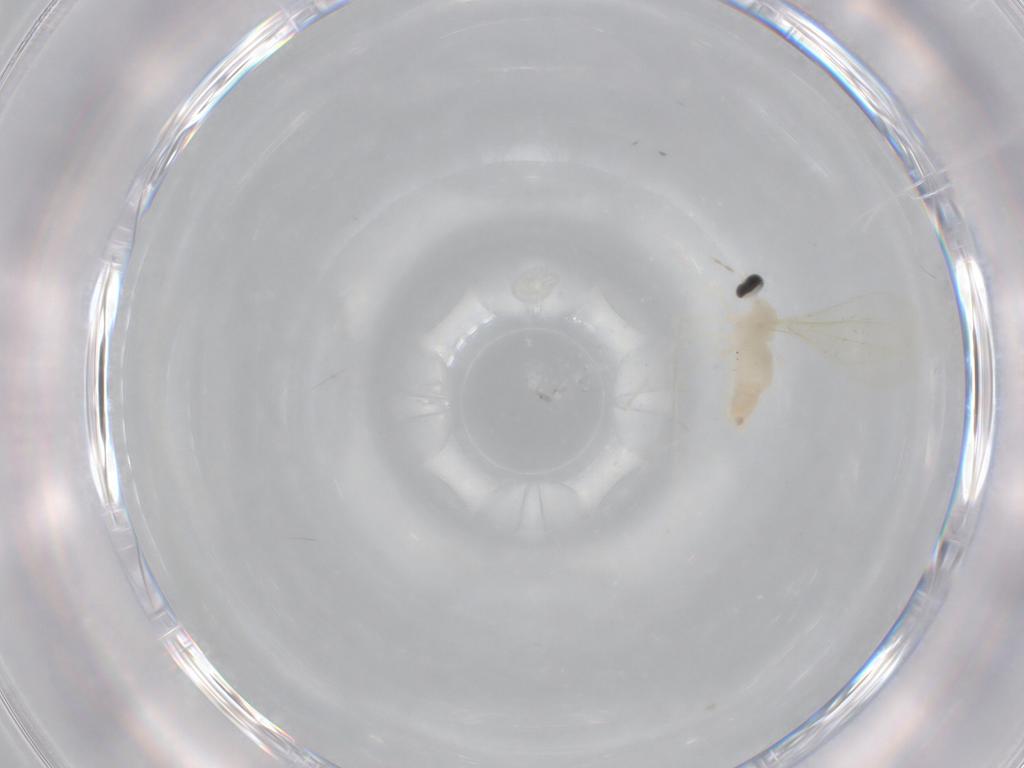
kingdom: Animalia
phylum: Arthropoda
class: Insecta
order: Diptera
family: Cecidomyiidae
